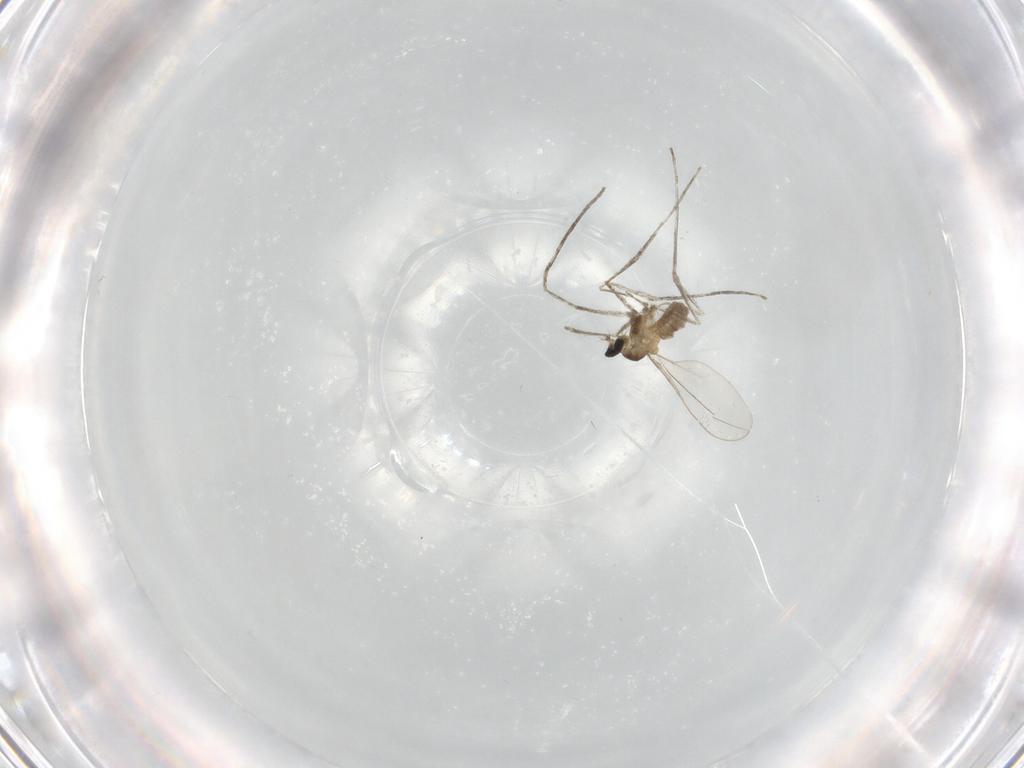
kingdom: Animalia
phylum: Arthropoda
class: Insecta
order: Diptera
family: Cecidomyiidae
